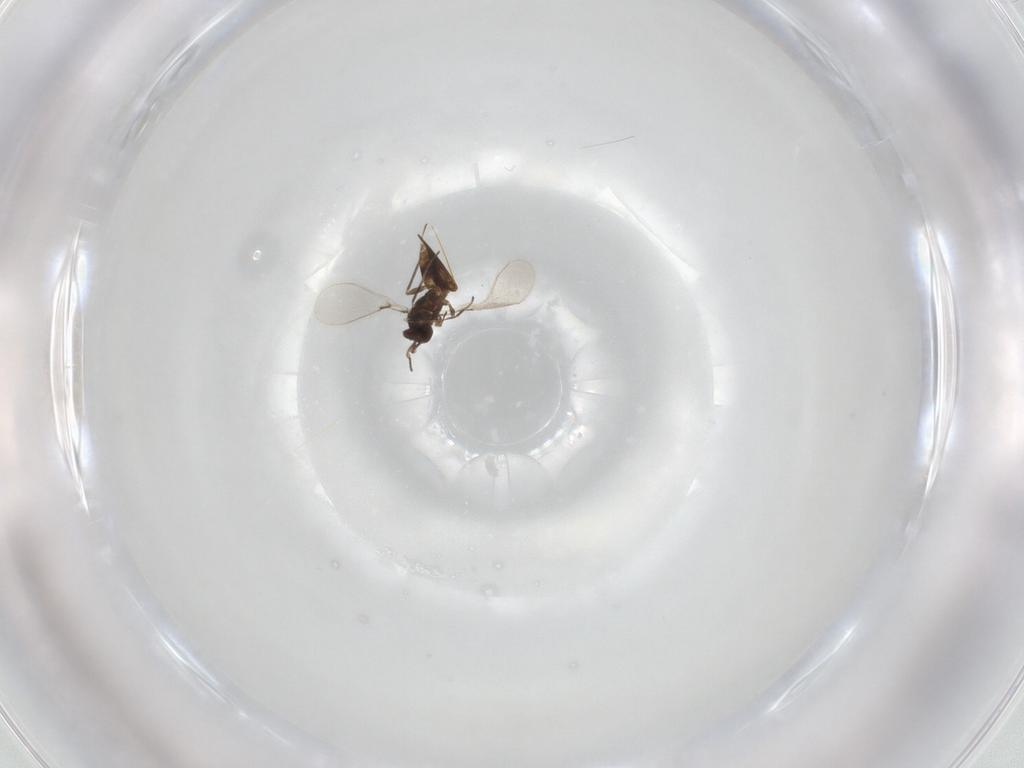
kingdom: Animalia
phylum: Arthropoda
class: Insecta
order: Hymenoptera
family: Mymaridae
